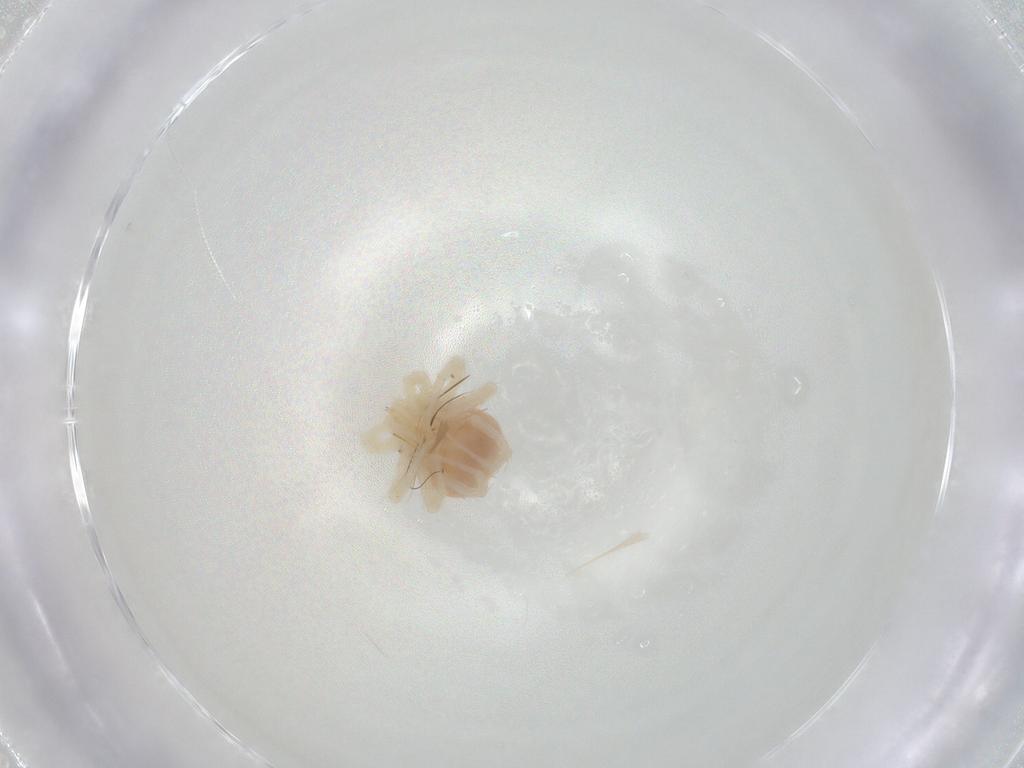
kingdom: Animalia
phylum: Arthropoda
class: Arachnida
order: Trombidiformes
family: Anystidae
